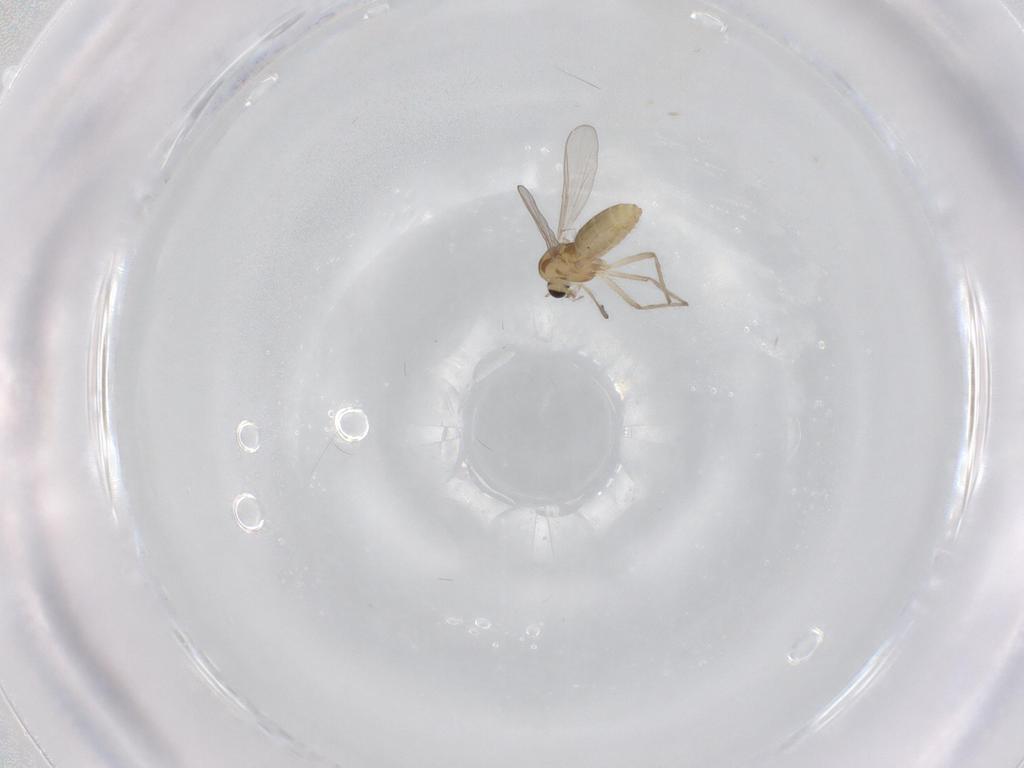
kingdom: Animalia
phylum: Arthropoda
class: Insecta
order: Diptera
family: Chironomidae
